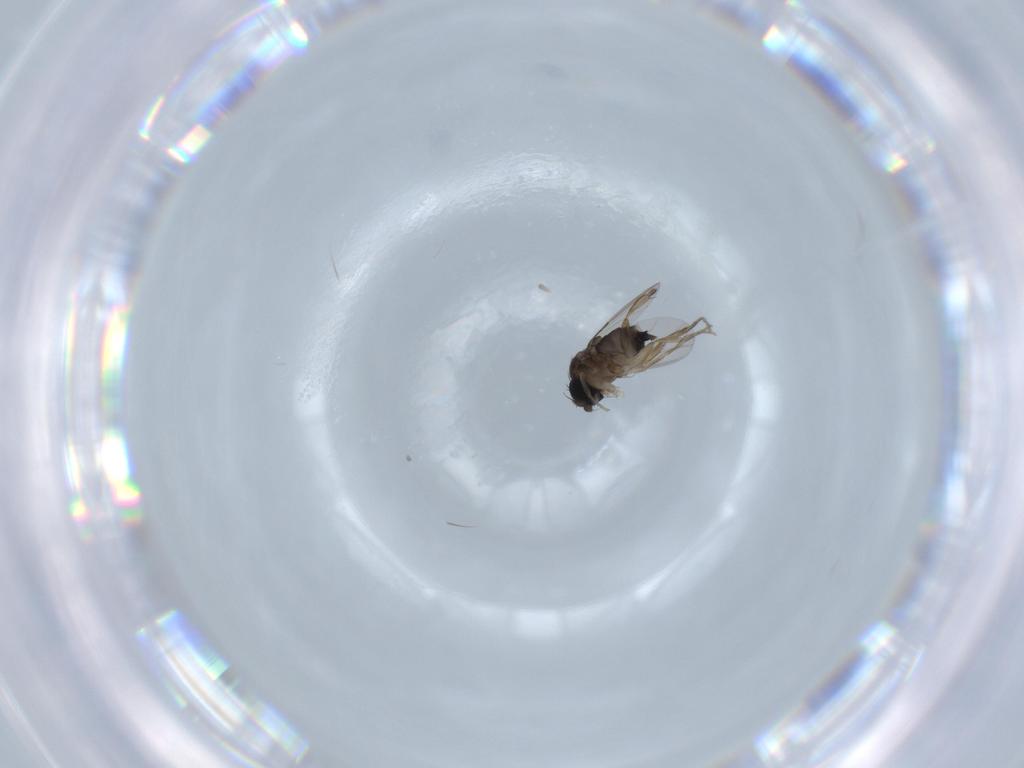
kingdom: Animalia
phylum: Arthropoda
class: Insecta
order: Diptera
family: Phoridae
